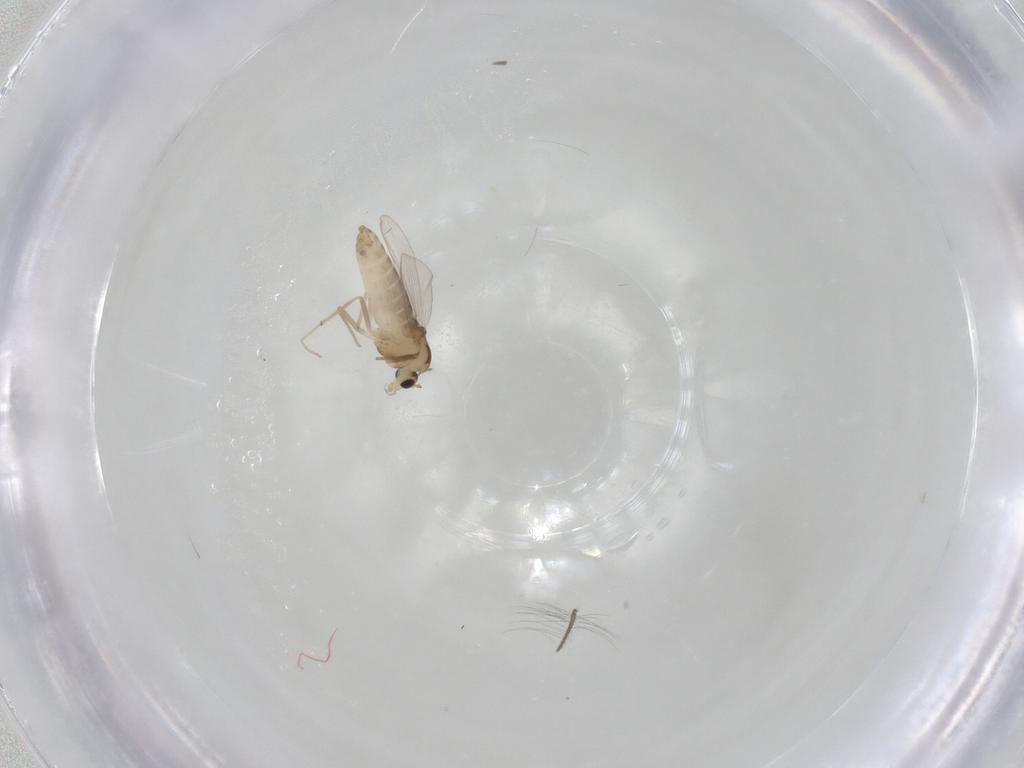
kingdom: Animalia
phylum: Arthropoda
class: Insecta
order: Diptera
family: Chironomidae
